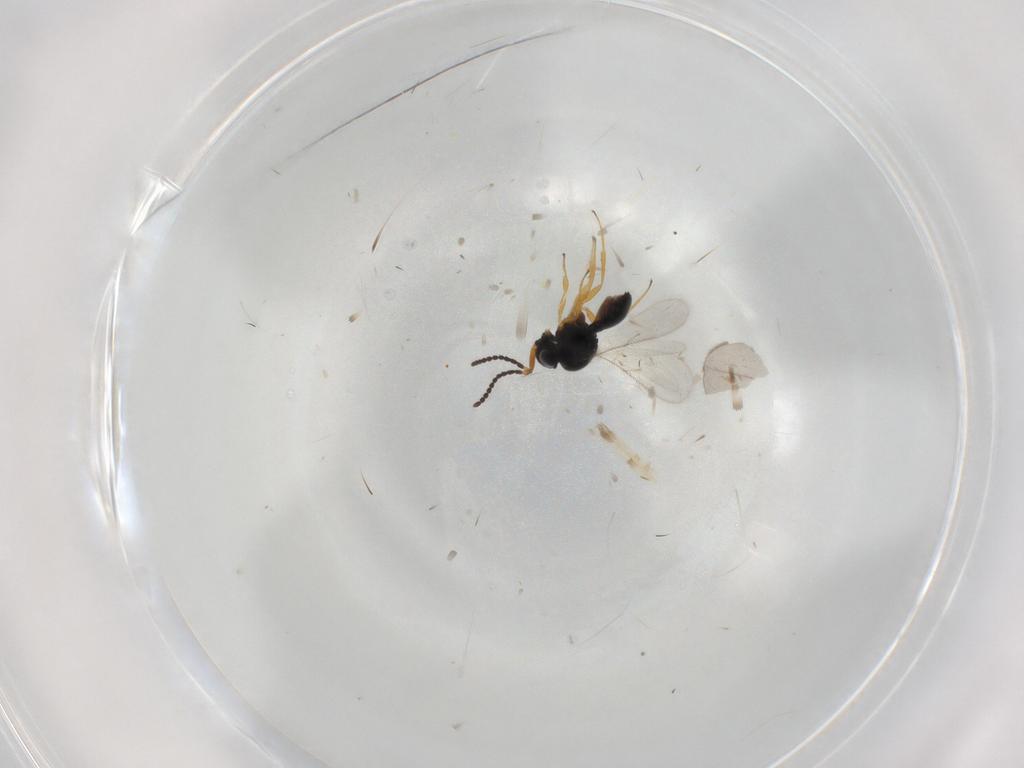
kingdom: Animalia
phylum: Arthropoda
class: Insecta
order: Hymenoptera
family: Scelionidae
